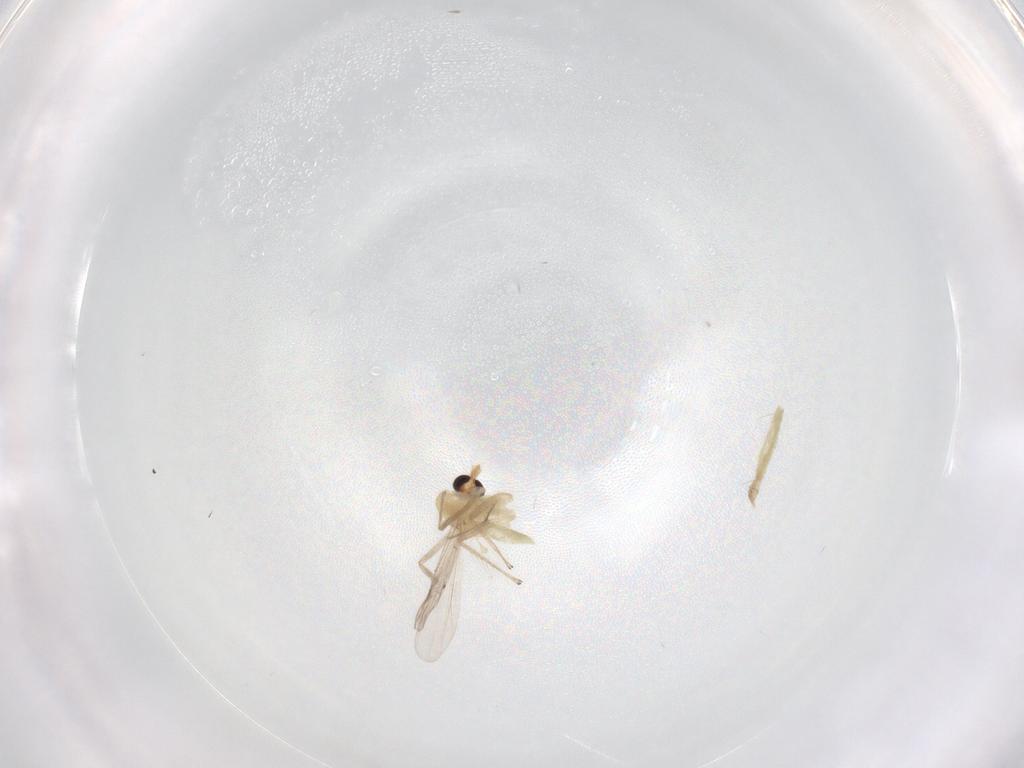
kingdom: Animalia
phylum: Arthropoda
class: Insecta
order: Diptera
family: Chironomidae
